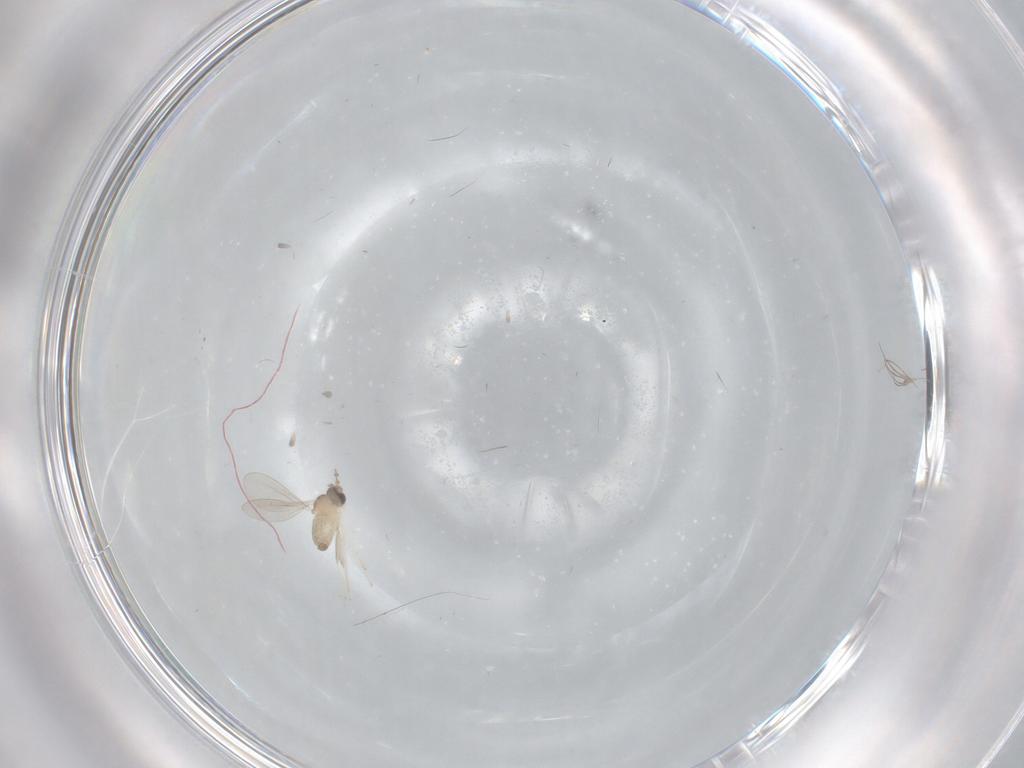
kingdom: Animalia
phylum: Arthropoda
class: Insecta
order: Diptera
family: Cecidomyiidae
